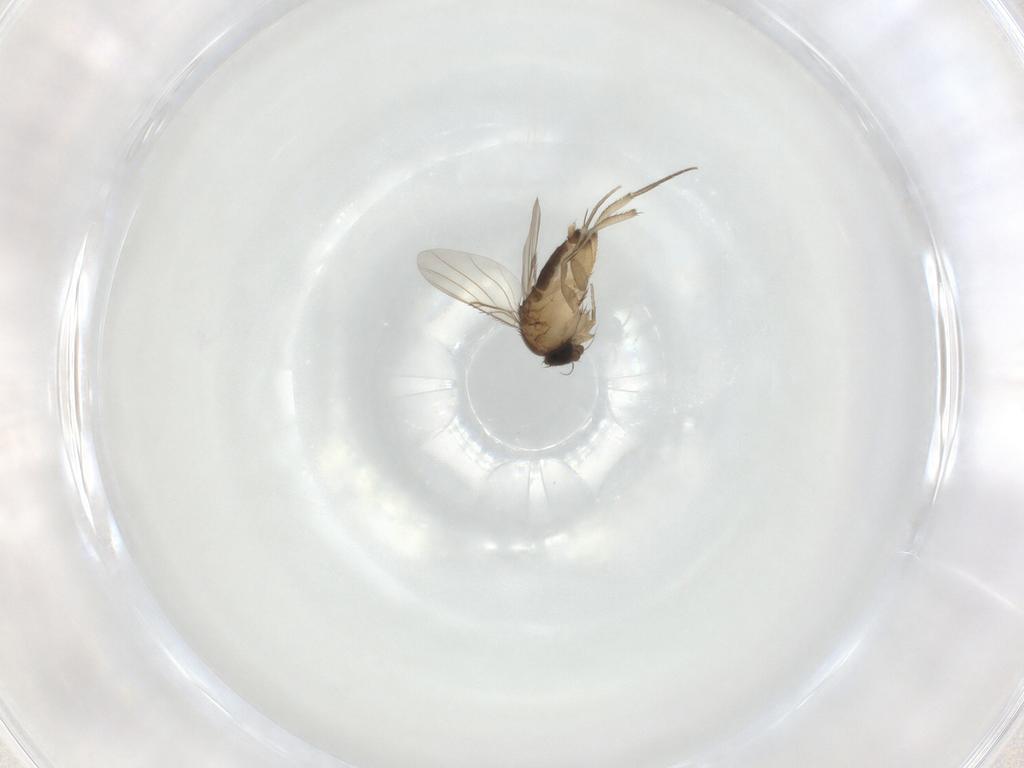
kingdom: Animalia
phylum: Arthropoda
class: Insecta
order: Diptera
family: Phoridae
